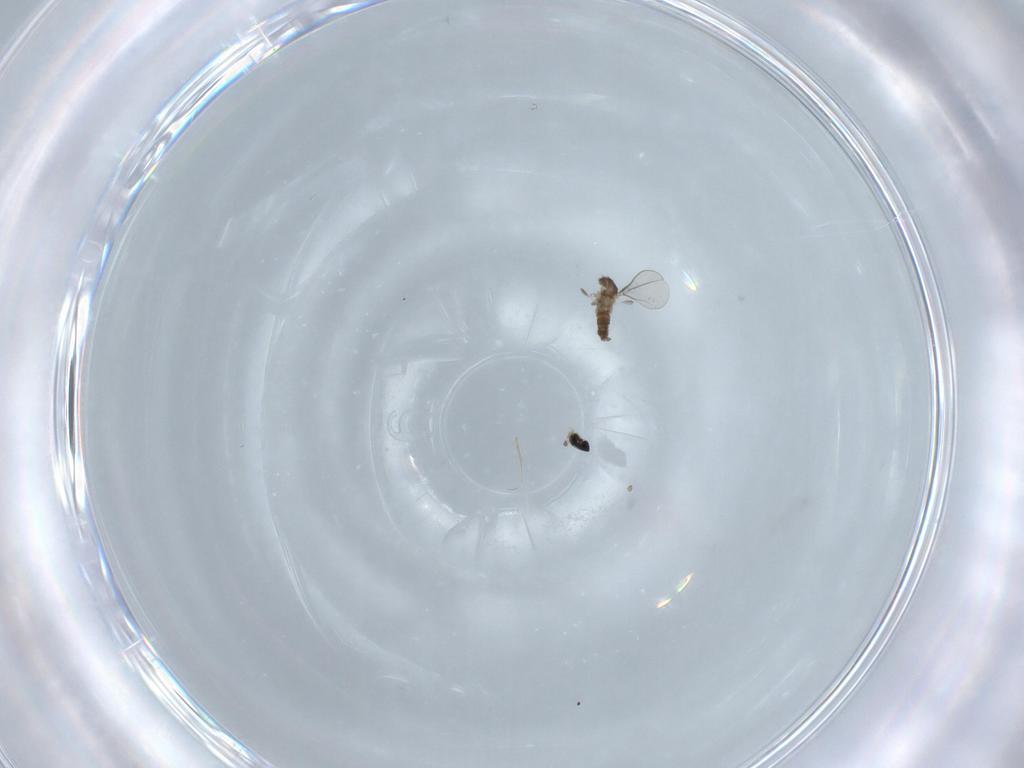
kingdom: Animalia
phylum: Arthropoda
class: Insecta
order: Diptera
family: Cecidomyiidae
